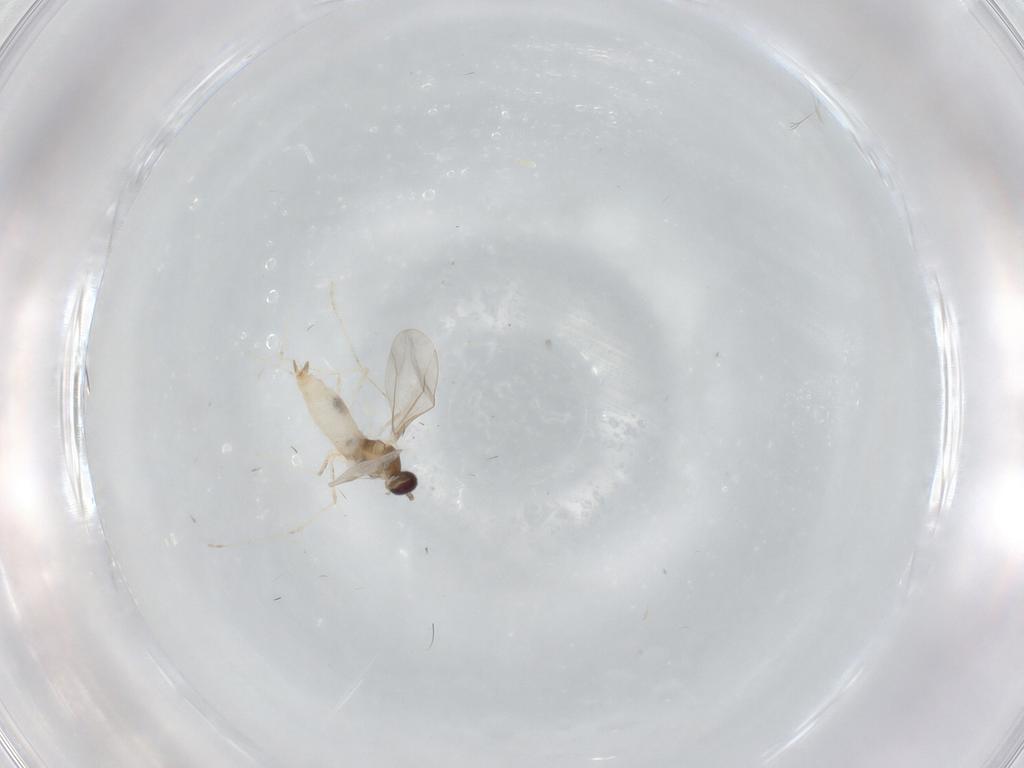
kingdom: Animalia
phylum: Arthropoda
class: Insecta
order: Diptera
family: Cecidomyiidae
